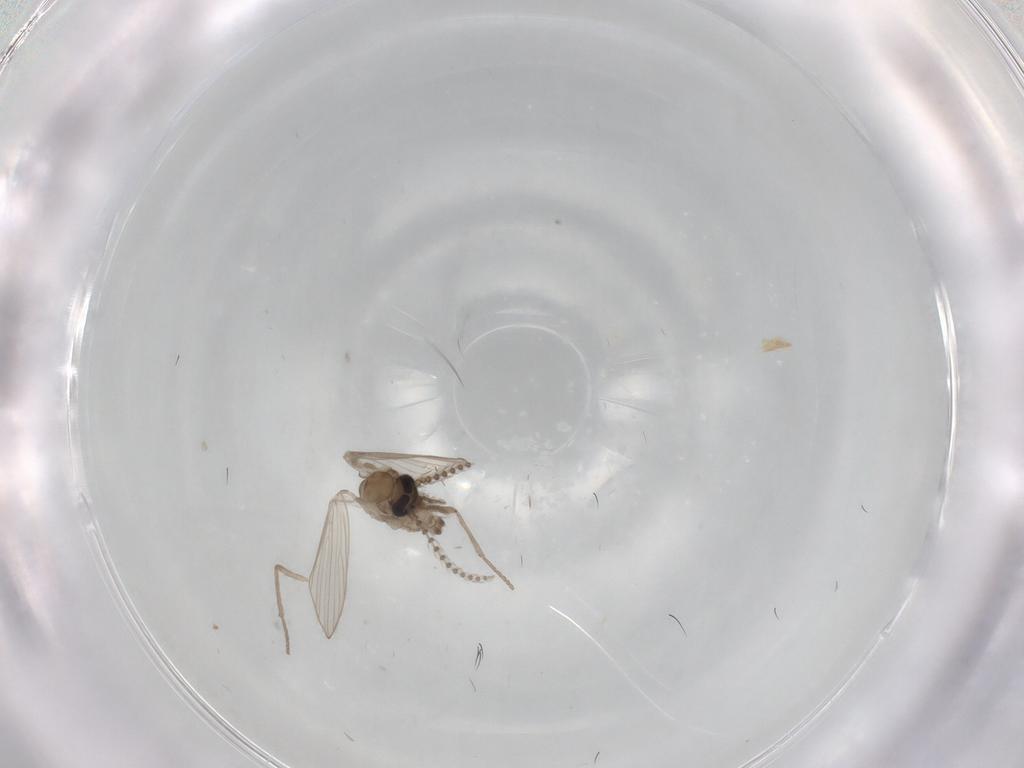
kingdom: Animalia
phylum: Arthropoda
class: Insecta
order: Diptera
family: Psychodidae
